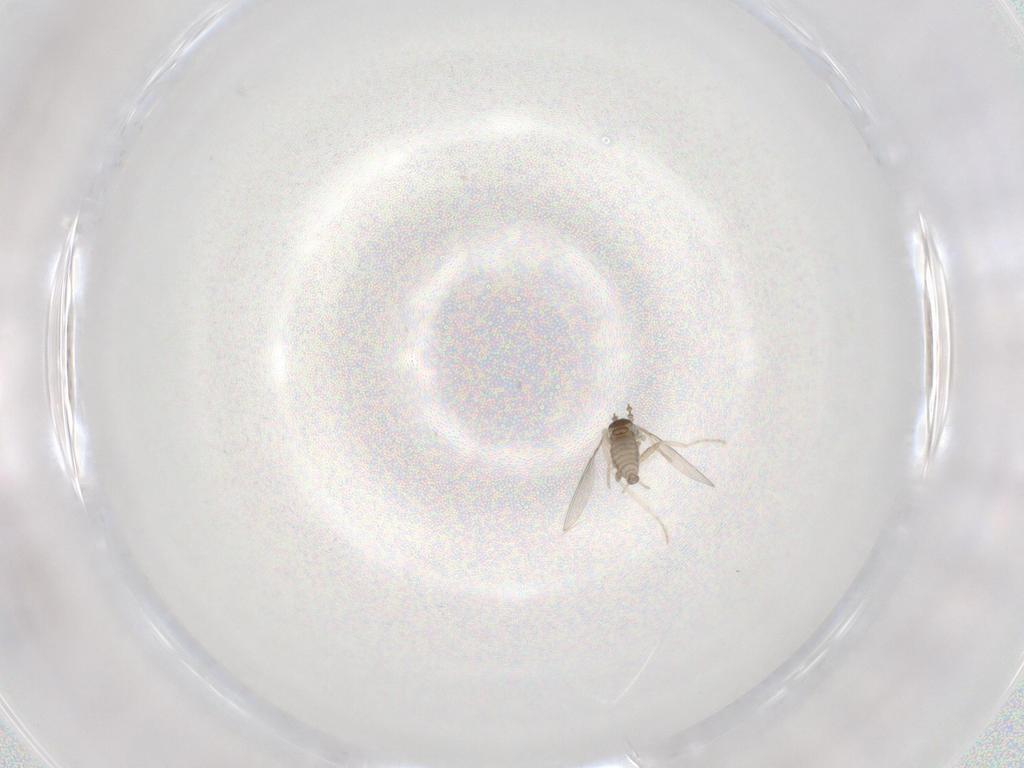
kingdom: Animalia
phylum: Arthropoda
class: Insecta
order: Diptera
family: Cecidomyiidae
